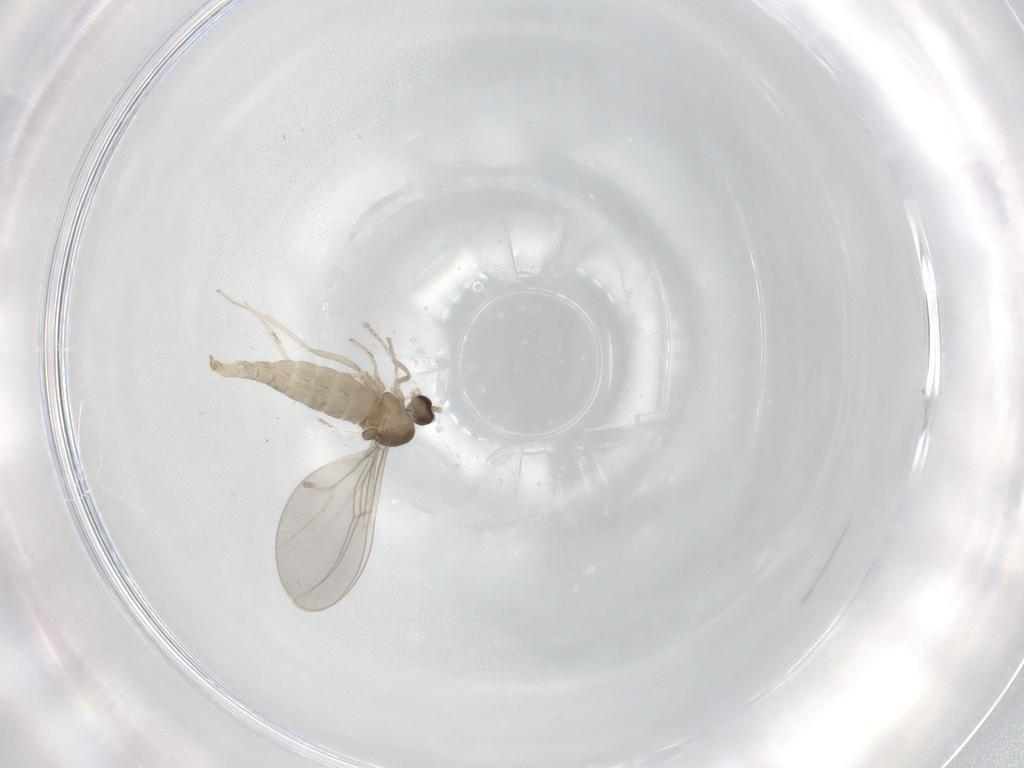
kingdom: Animalia
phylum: Arthropoda
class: Insecta
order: Diptera
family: Cecidomyiidae
